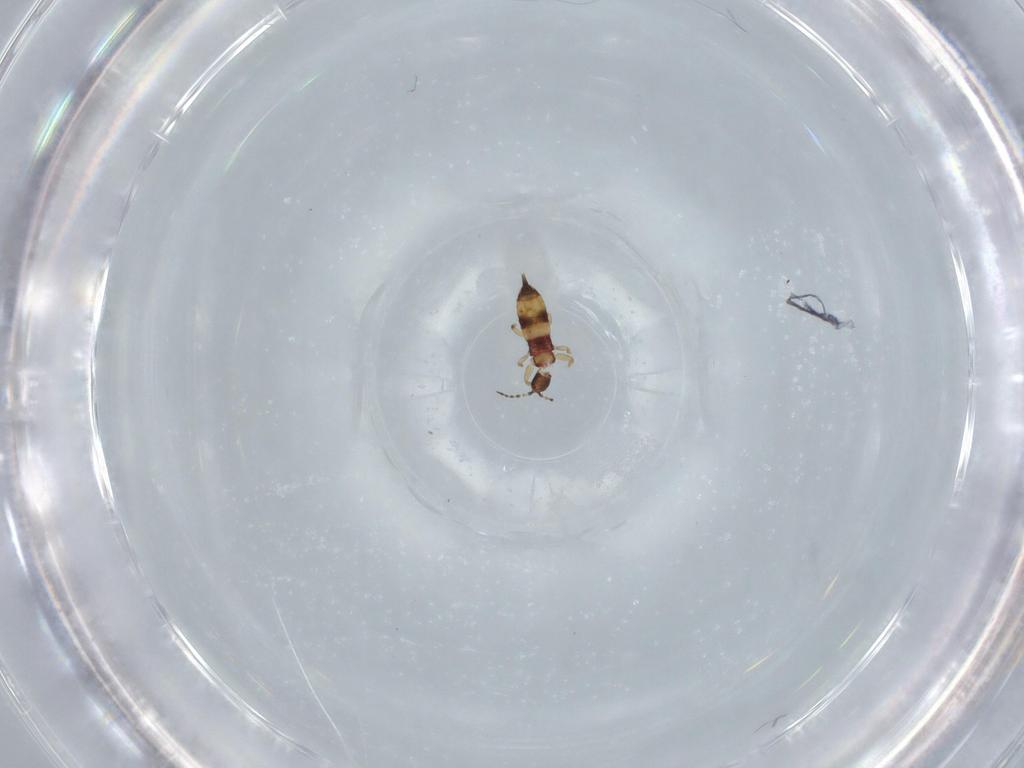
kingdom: Animalia
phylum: Arthropoda
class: Insecta
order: Thysanoptera
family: Phlaeothripidae
